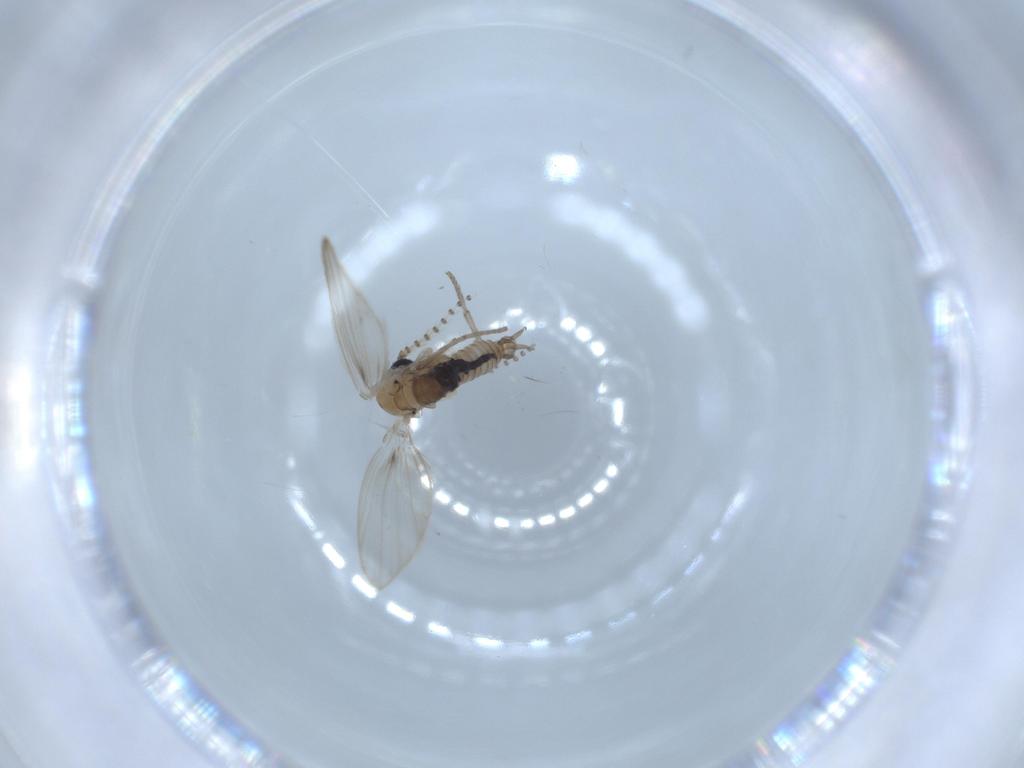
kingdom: Animalia
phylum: Arthropoda
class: Insecta
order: Diptera
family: Psychodidae
